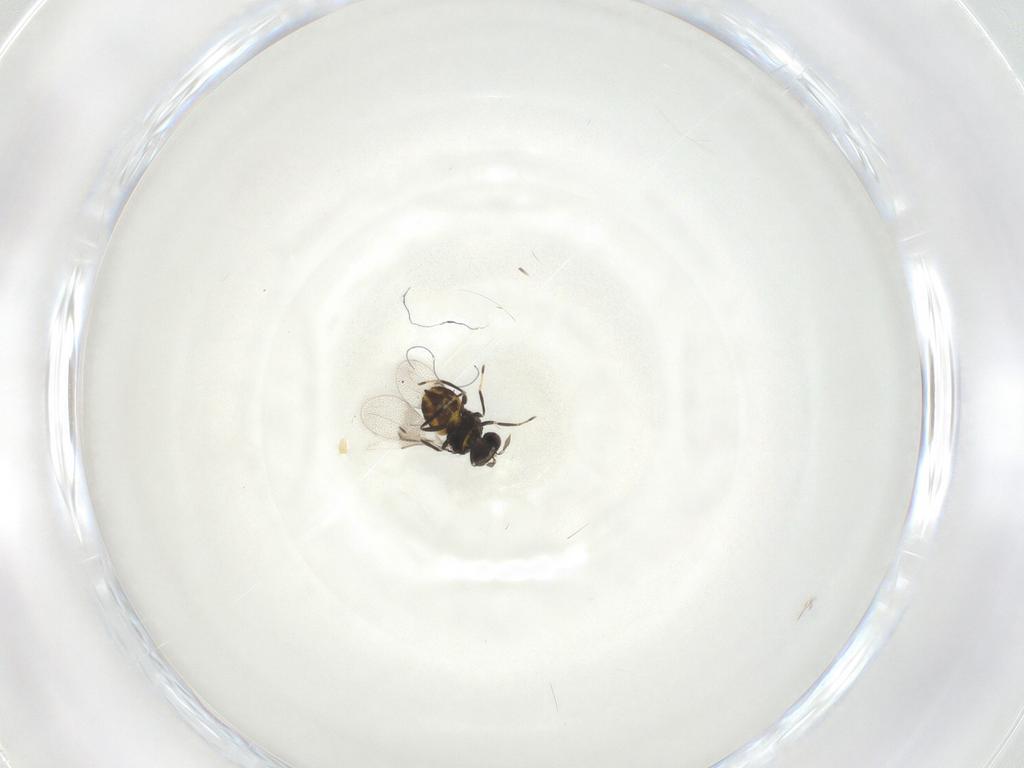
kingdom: Animalia
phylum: Arthropoda
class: Insecta
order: Hymenoptera
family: Eulophidae
